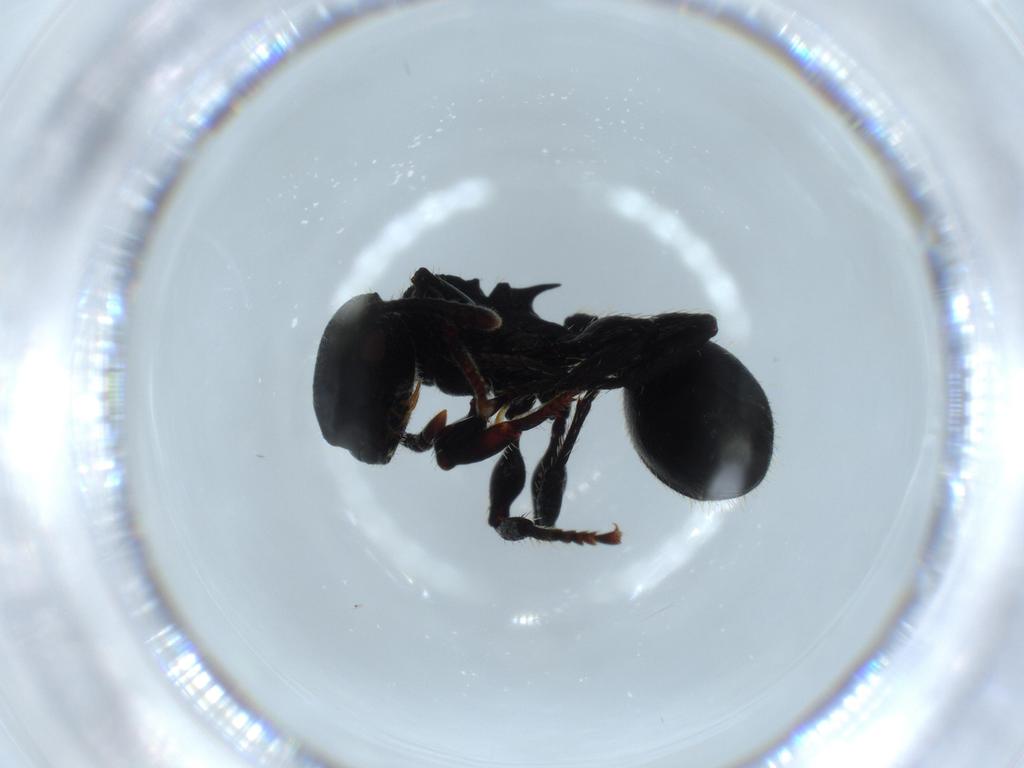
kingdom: Animalia
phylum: Arthropoda
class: Insecta
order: Hymenoptera
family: Formicidae
